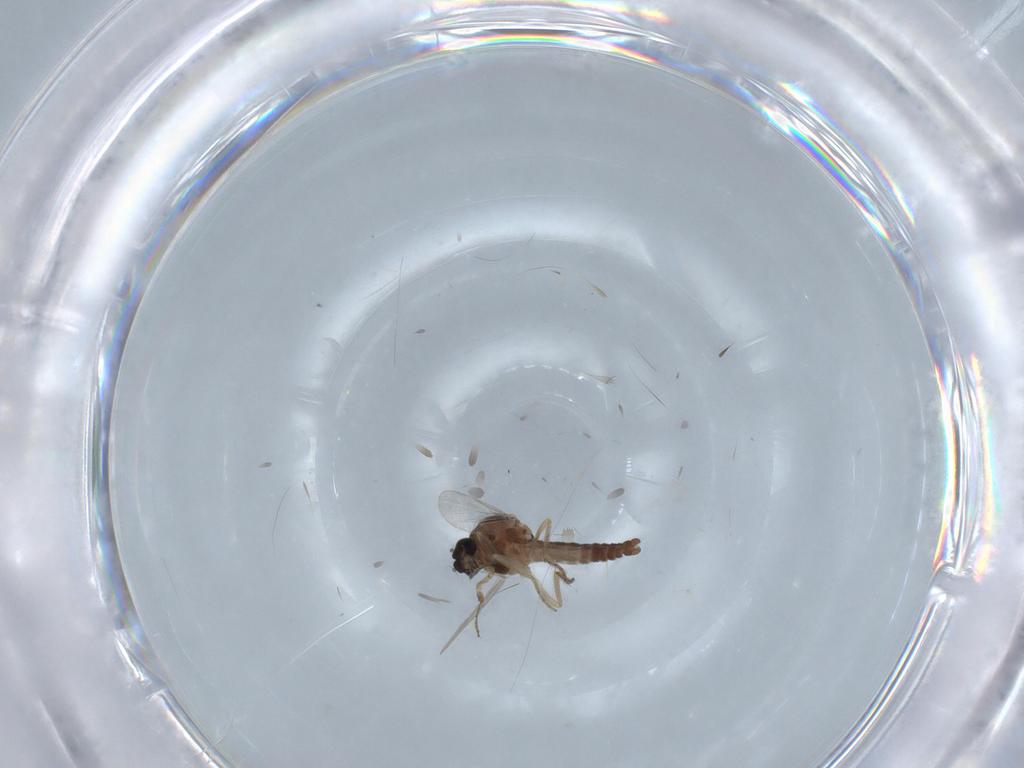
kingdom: Animalia
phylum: Arthropoda
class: Insecta
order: Diptera
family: Ceratopogonidae
